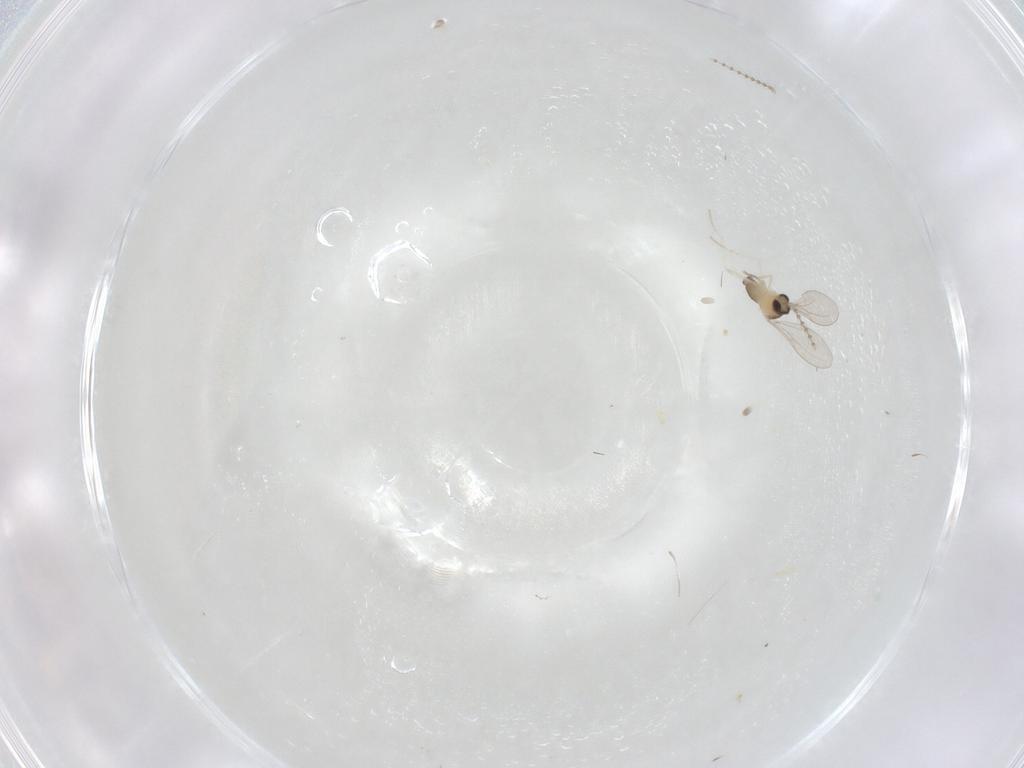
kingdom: Animalia
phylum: Arthropoda
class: Insecta
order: Diptera
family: Cecidomyiidae
